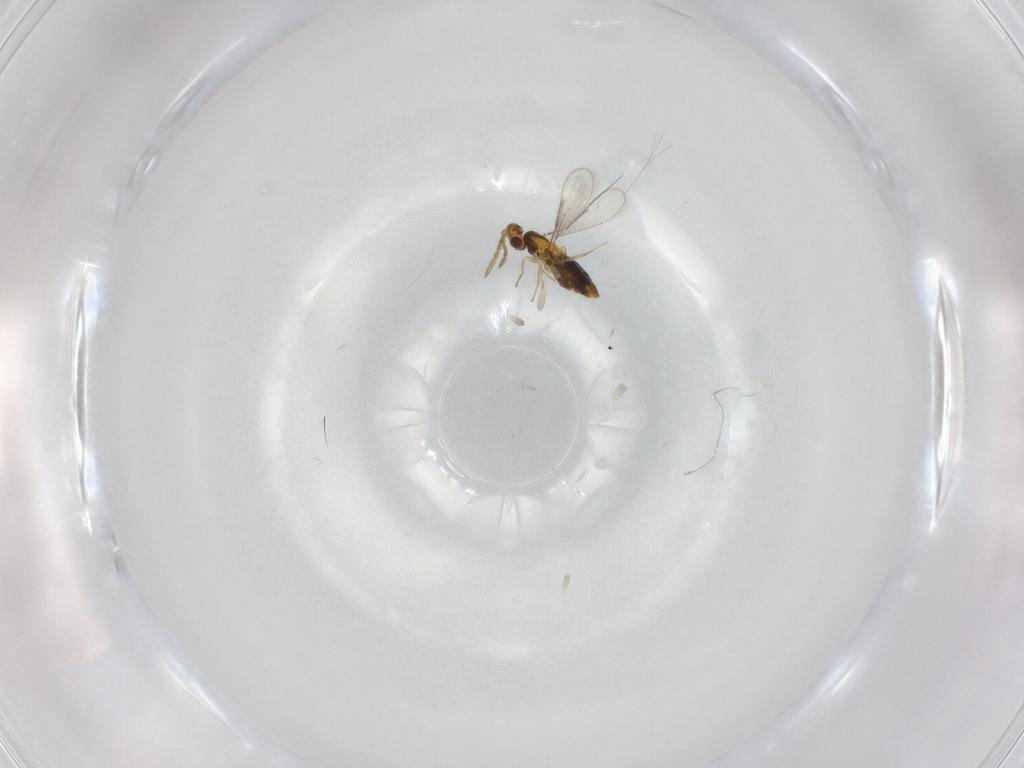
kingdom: Animalia
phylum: Arthropoda
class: Insecta
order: Hymenoptera
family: Aphelinidae
